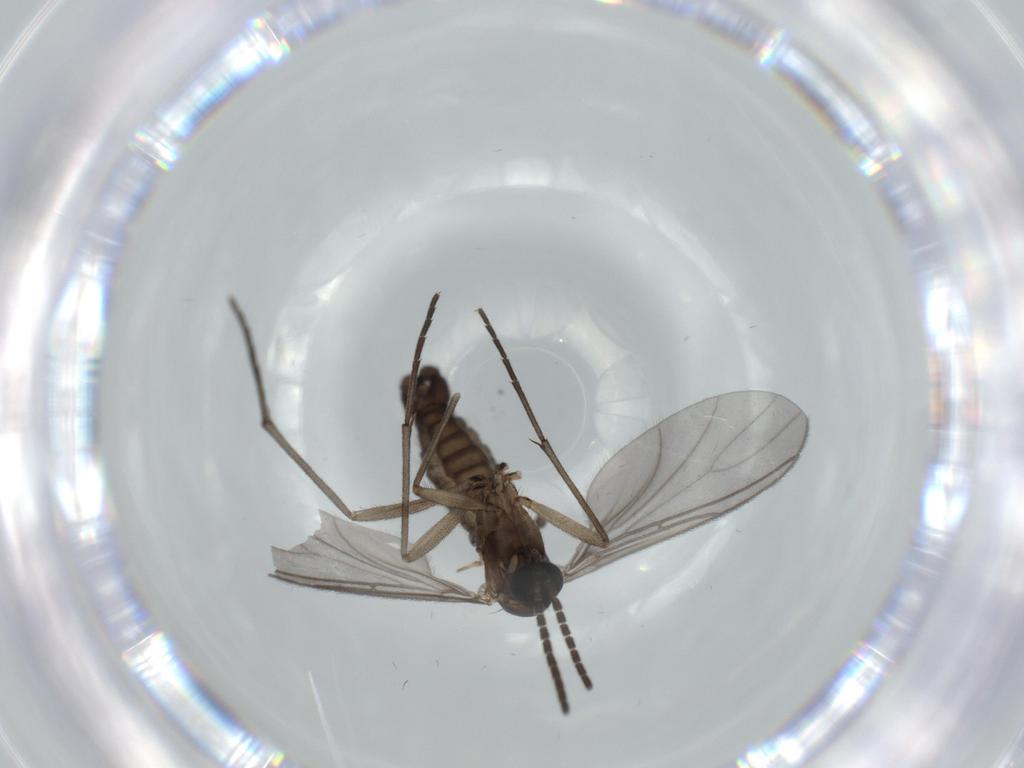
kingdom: Animalia
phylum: Arthropoda
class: Insecta
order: Diptera
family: Sciaridae
